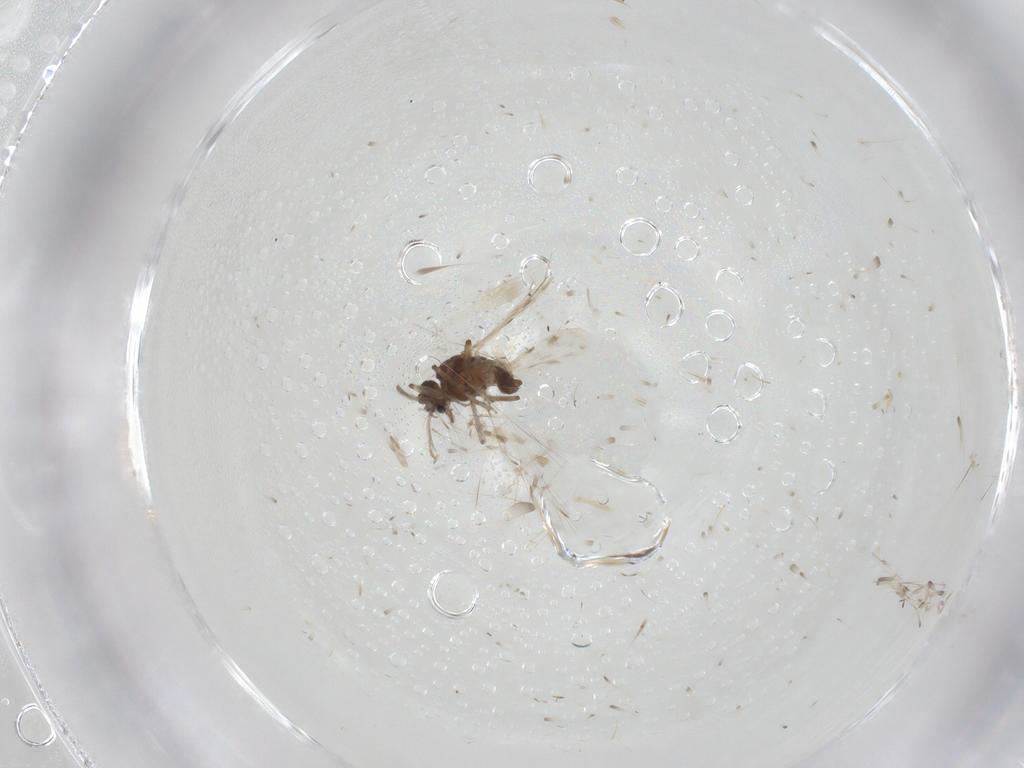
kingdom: Animalia
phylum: Arthropoda
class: Insecta
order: Diptera
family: Ceratopogonidae
